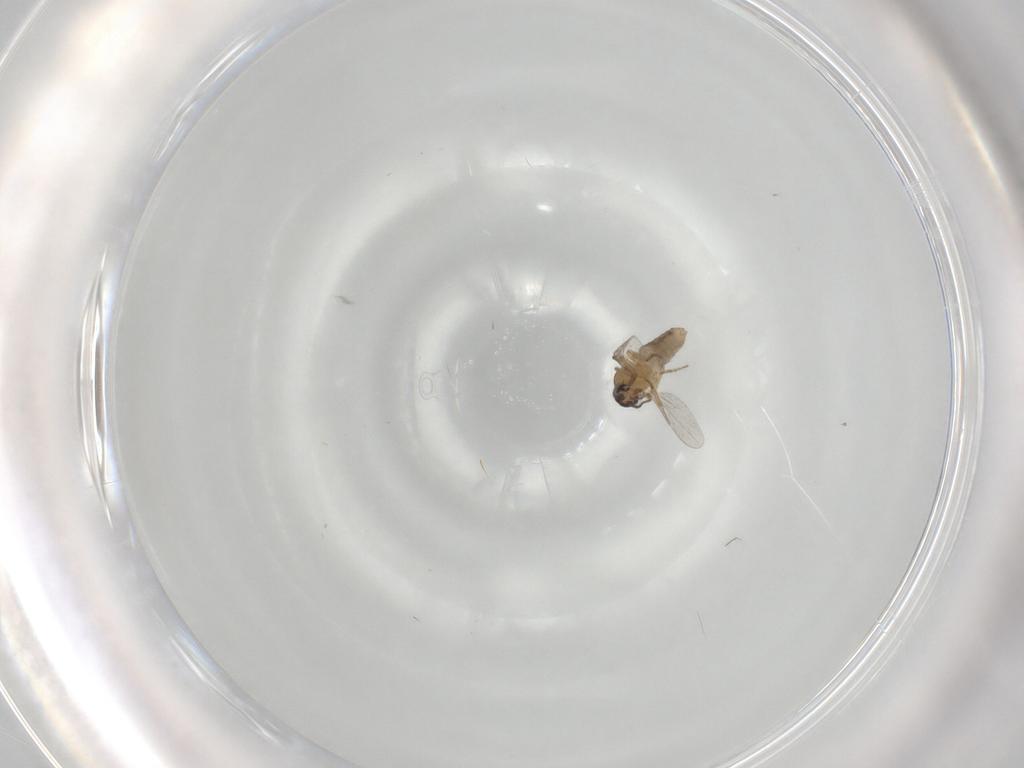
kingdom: Animalia
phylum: Arthropoda
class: Insecta
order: Diptera
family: Ceratopogonidae
